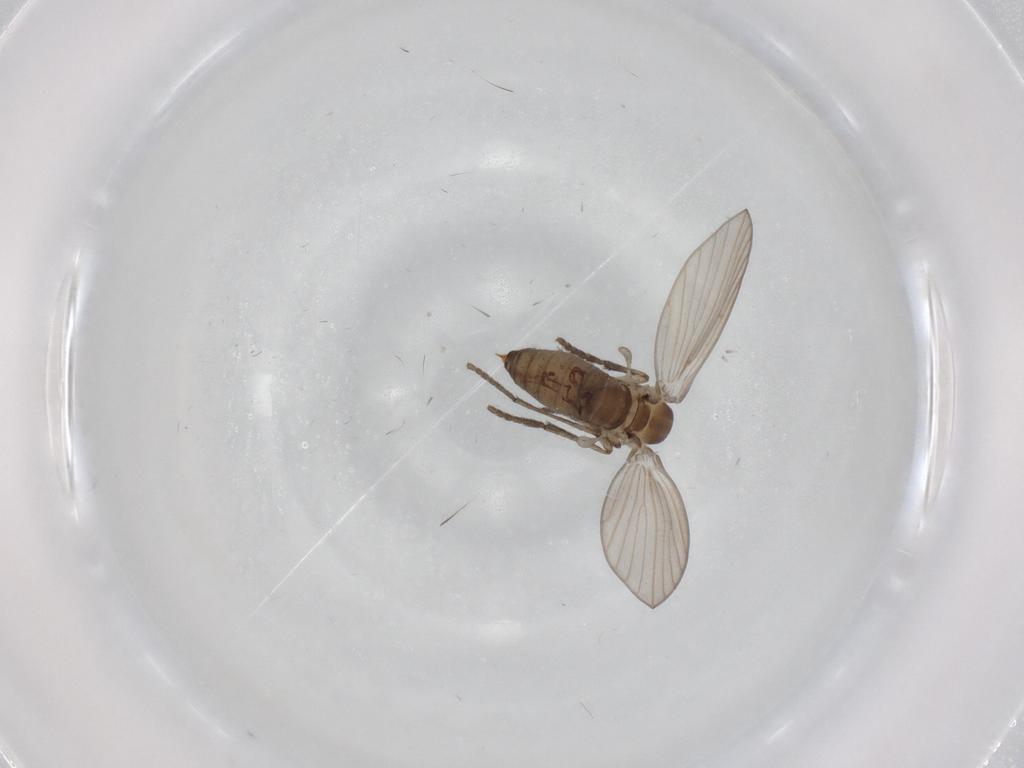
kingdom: Animalia
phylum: Arthropoda
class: Insecta
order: Diptera
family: Psychodidae
